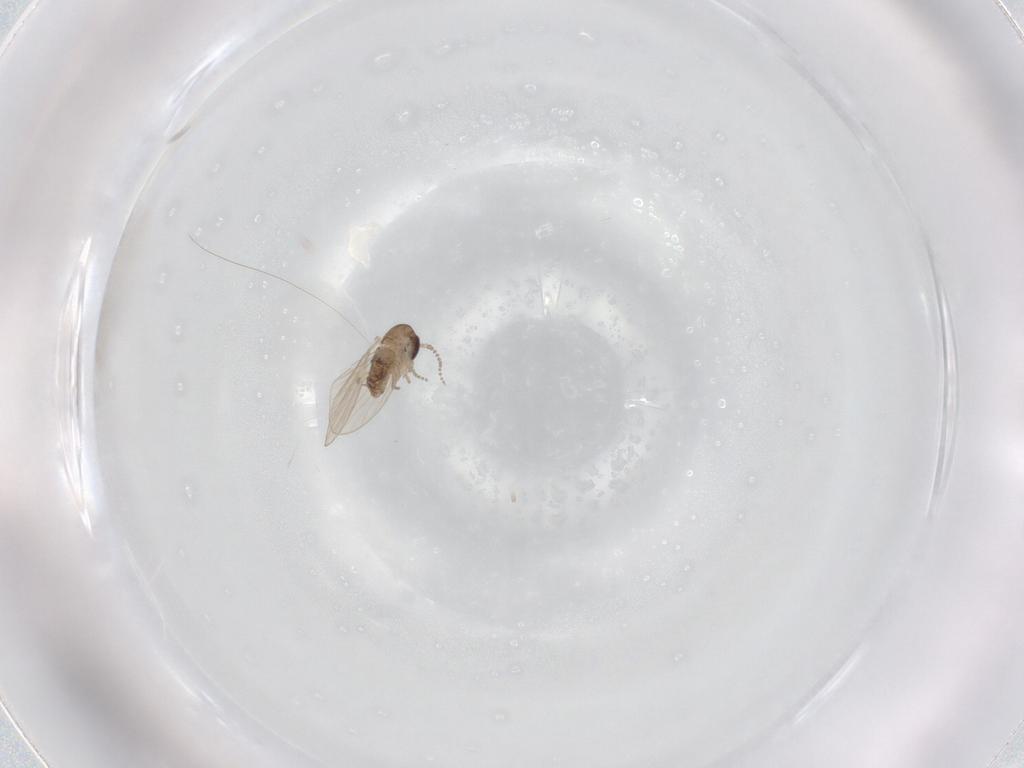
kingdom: Animalia
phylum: Arthropoda
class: Insecta
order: Diptera
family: Psychodidae
